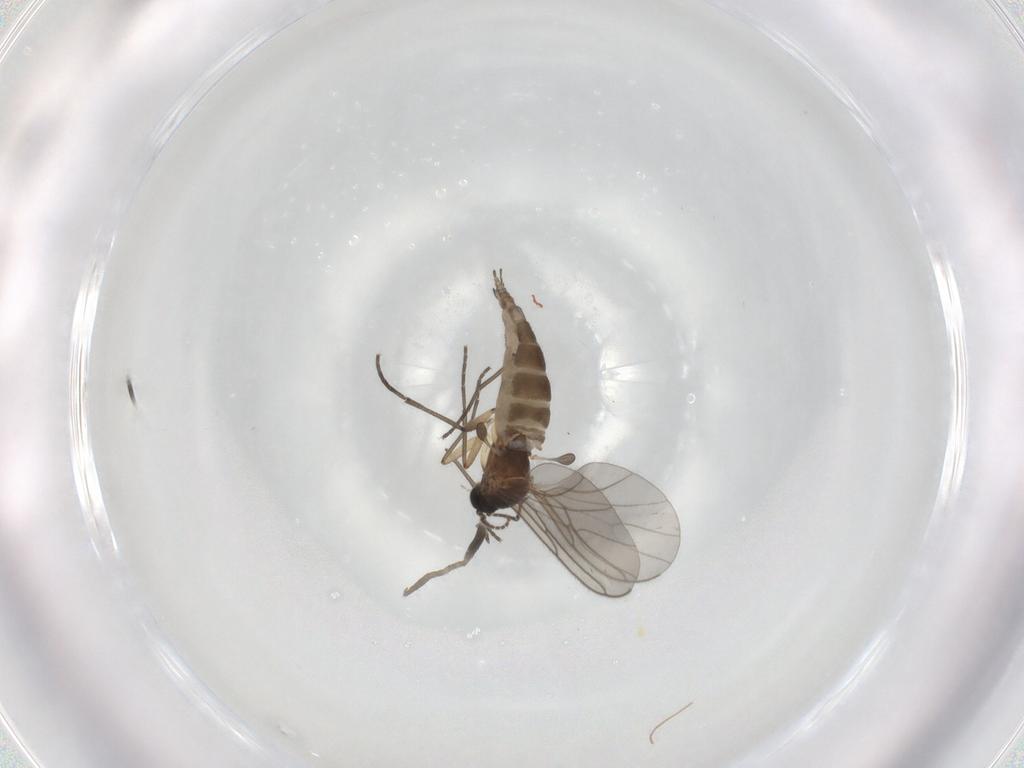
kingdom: Animalia
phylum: Arthropoda
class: Insecta
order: Diptera
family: Sciaridae
